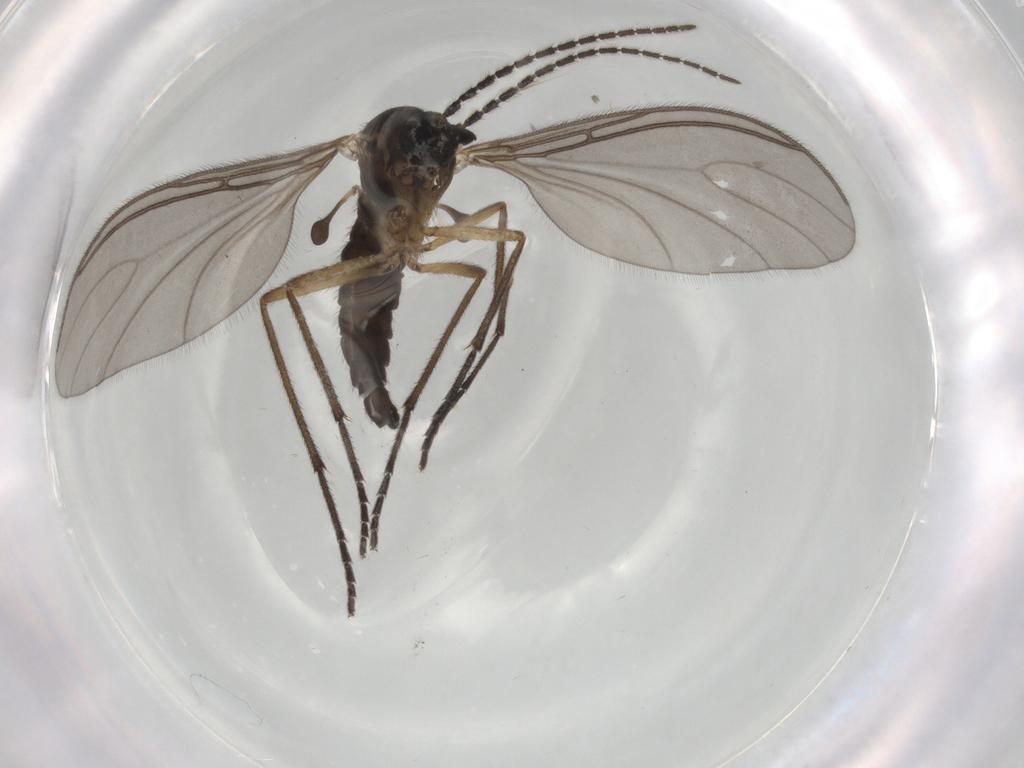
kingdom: Animalia
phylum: Arthropoda
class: Insecta
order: Diptera
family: Sciaridae
